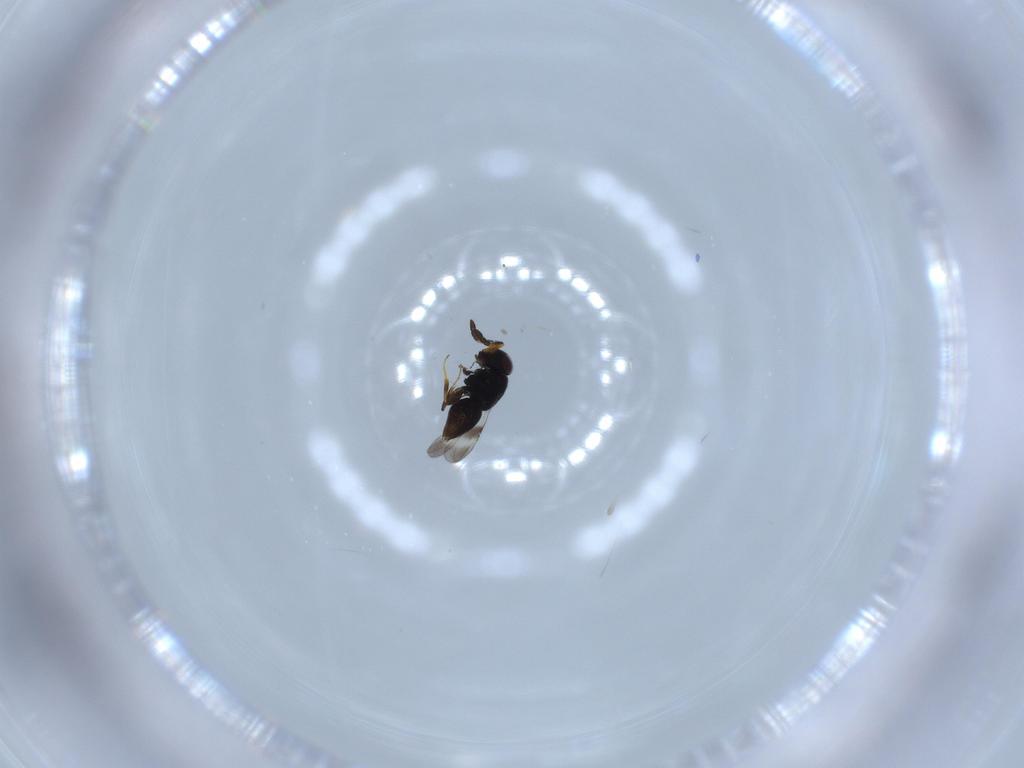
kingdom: Animalia
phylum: Arthropoda
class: Insecta
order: Hymenoptera
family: Ceraphronidae
